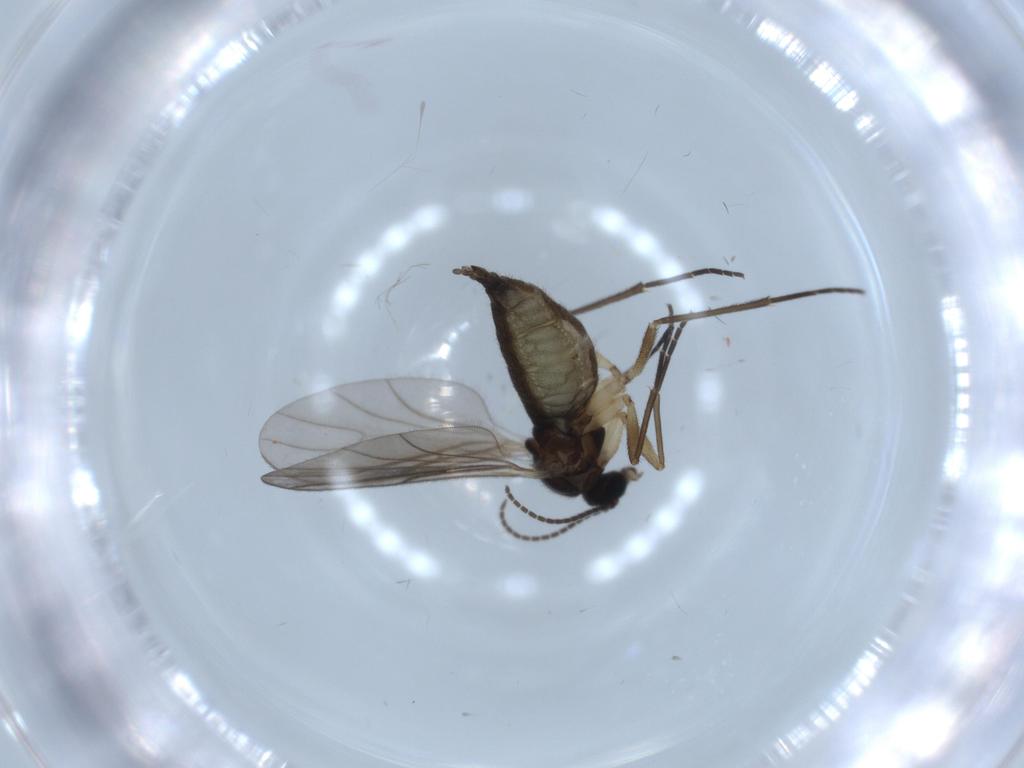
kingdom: Animalia
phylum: Arthropoda
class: Insecta
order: Diptera
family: Sciaridae
